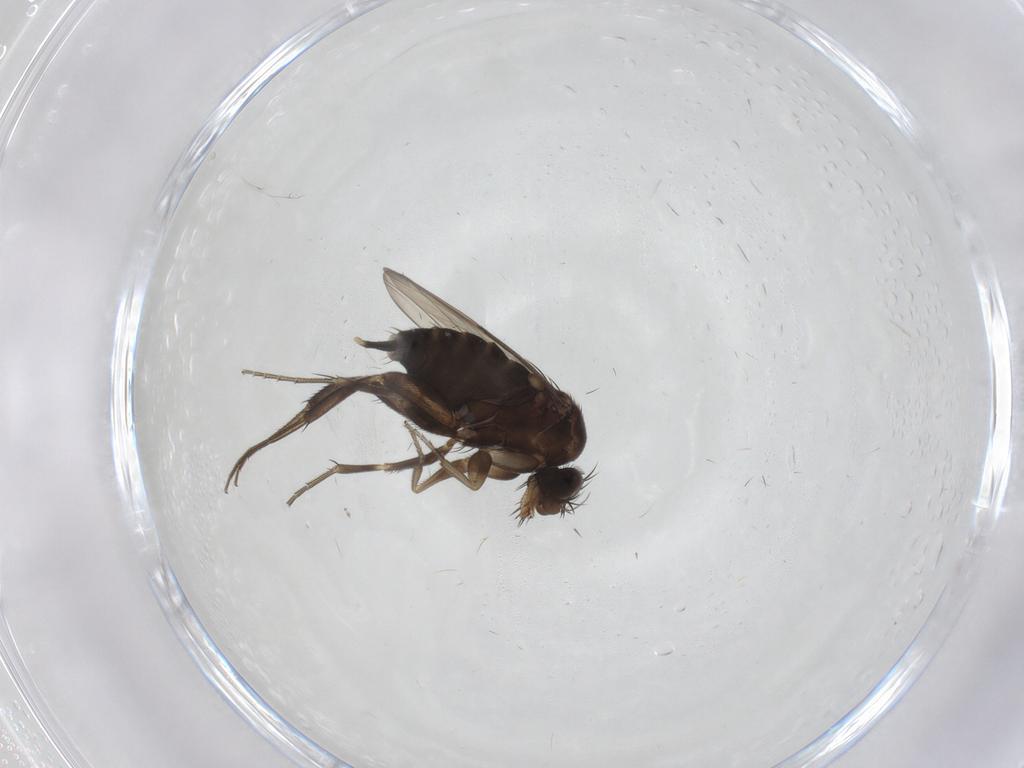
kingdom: Animalia
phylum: Arthropoda
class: Insecta
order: Diptera
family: Phoridae
